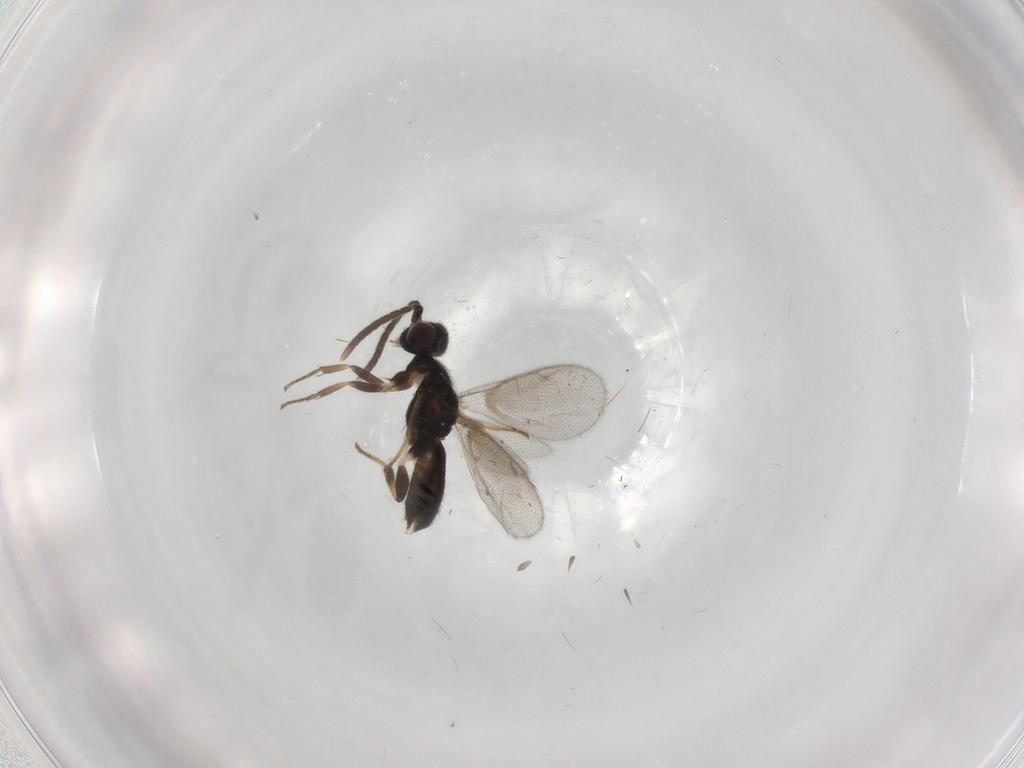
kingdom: Animalia
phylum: Arthropoda
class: Insecta
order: Hymenoptera
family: Scelionidae
